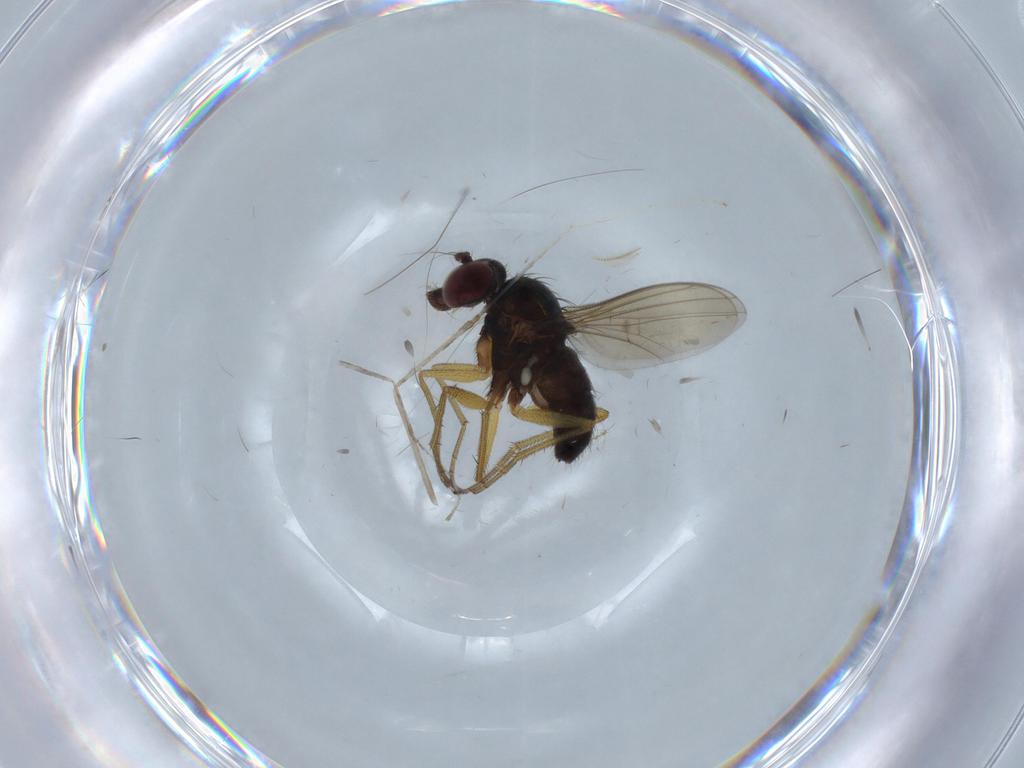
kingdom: Animalia
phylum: Arthropoda
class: Insecta
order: Diptera
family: Dolichopodidae
